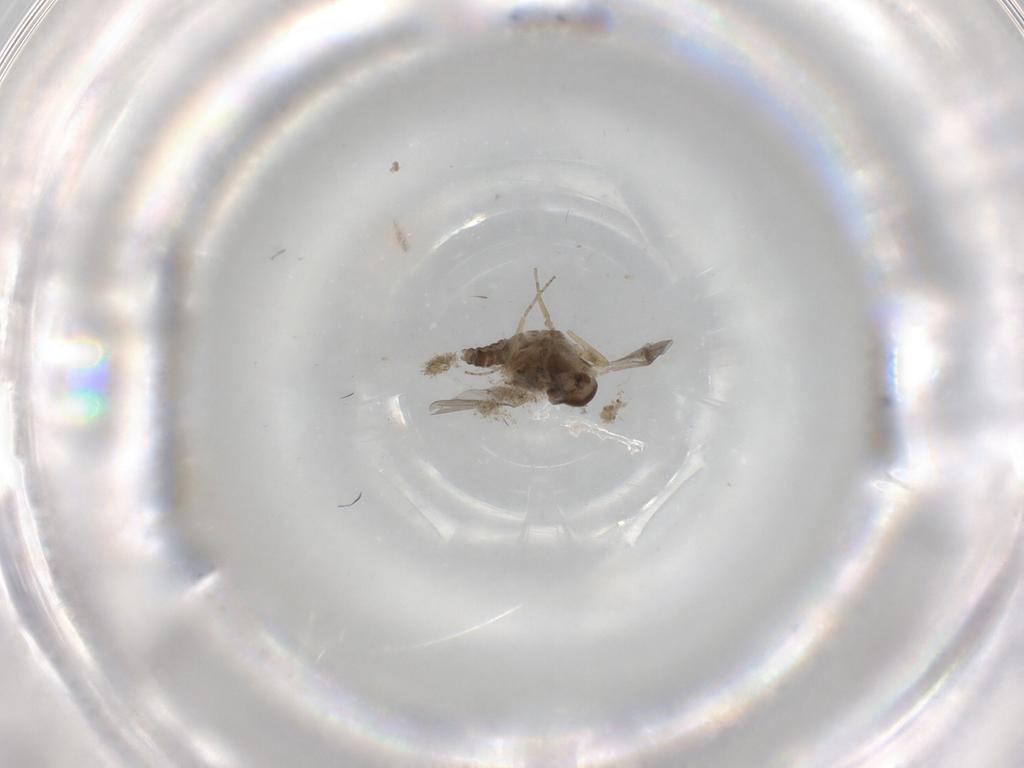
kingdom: Animalia
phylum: Arthropoda
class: Insecta
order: Diptera
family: Ceratopogonidae
